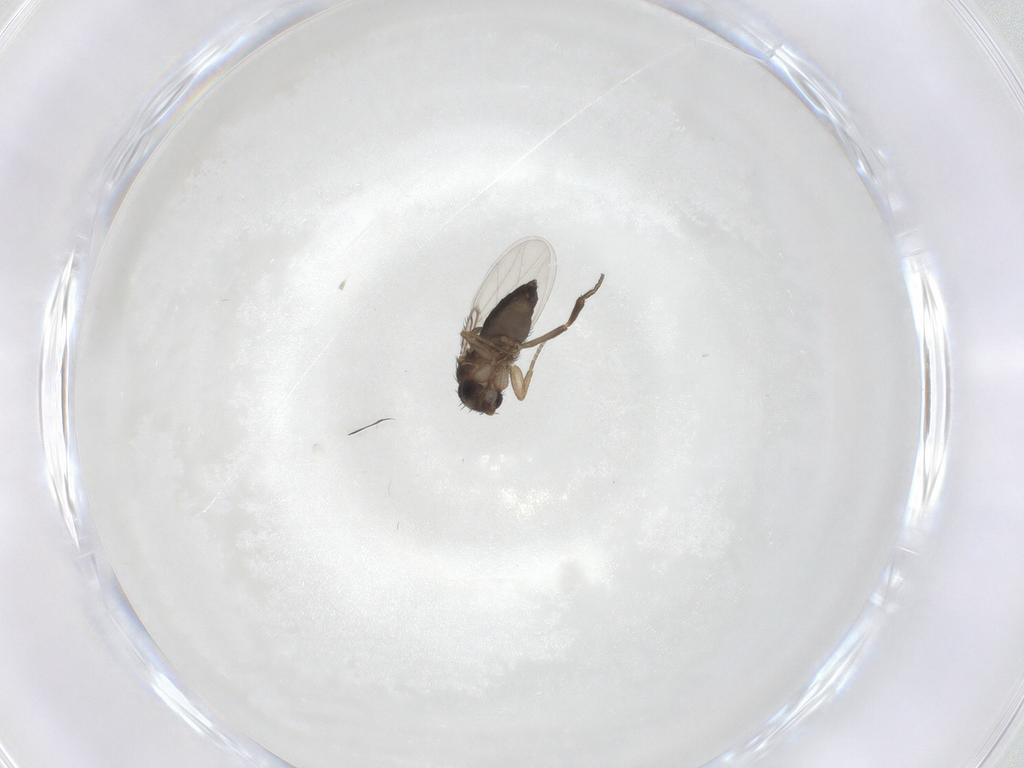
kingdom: Animalia
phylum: Arthropoda
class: Insecta
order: Diptera
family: Phoridae
